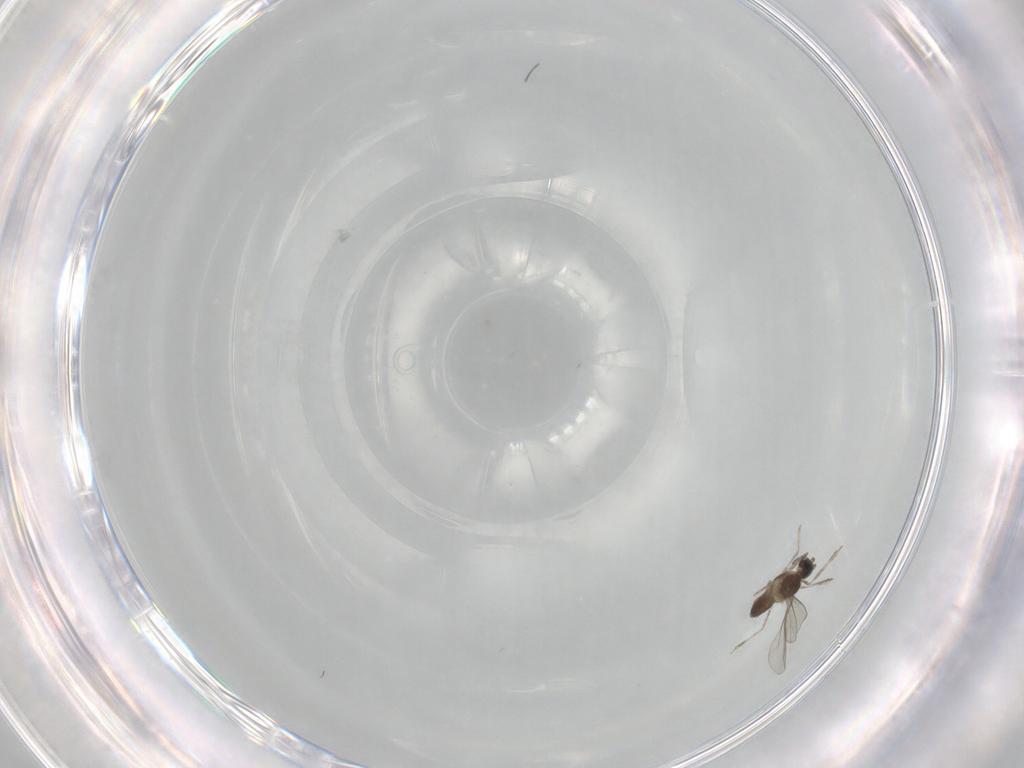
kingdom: Animalia
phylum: Arthropoda
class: Insecta
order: Diptera
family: Cecidomyiidae
